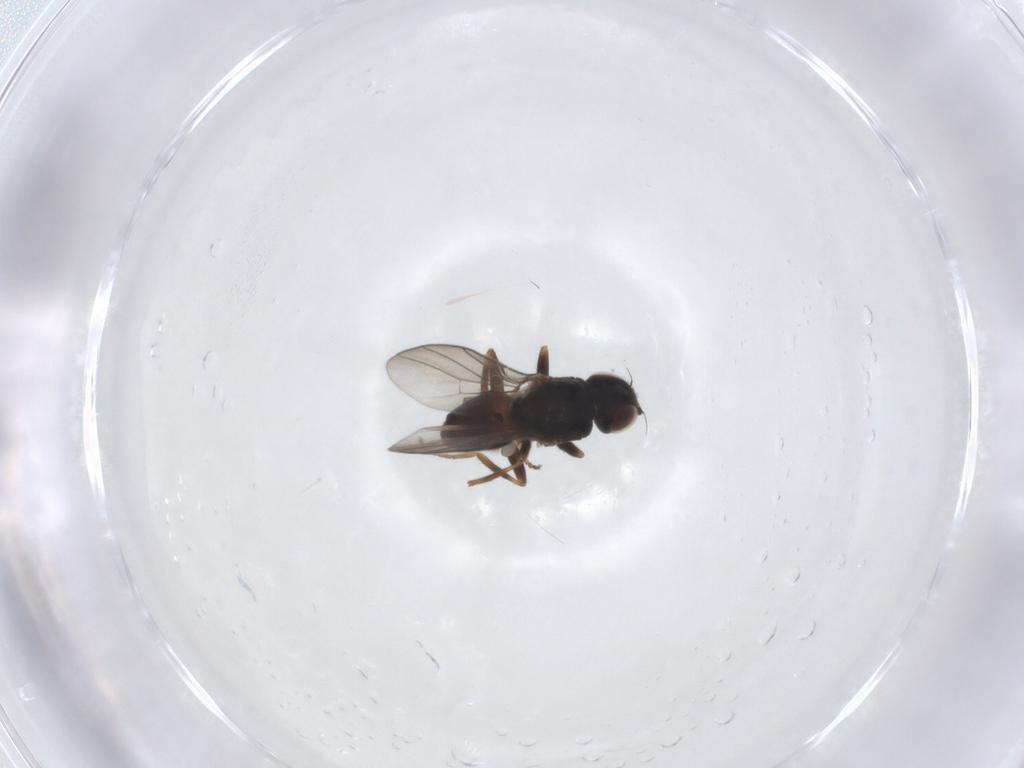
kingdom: Animalia
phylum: Arthropoda
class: Insecta
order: Diptera
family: Chloropidae
